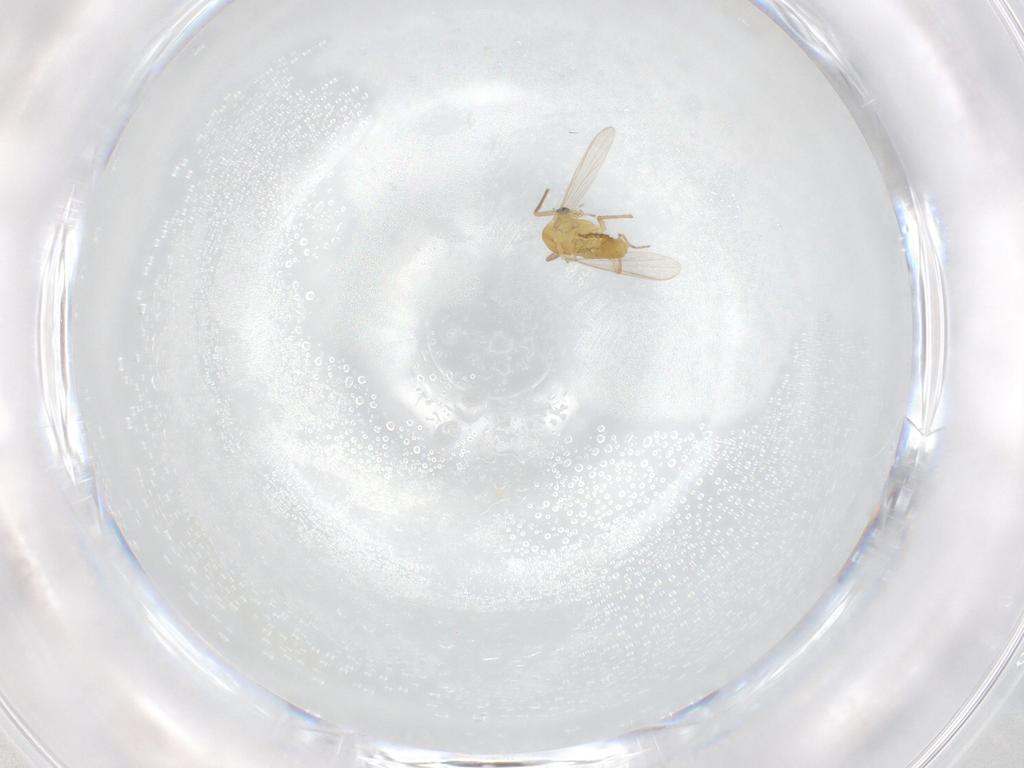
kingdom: Animalia
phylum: Arthropoda
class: Insecta
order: Diptera
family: Chironomidae
